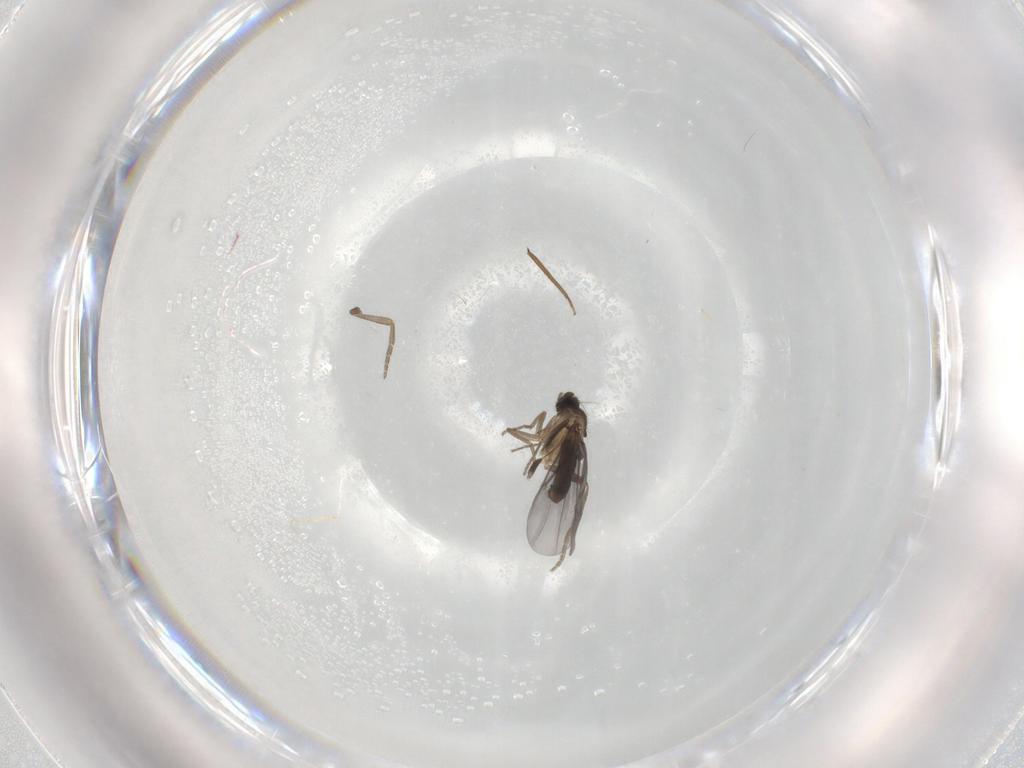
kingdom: Animalia
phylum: Arthropoda
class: Insecta
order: Diptera
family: Phoridae
